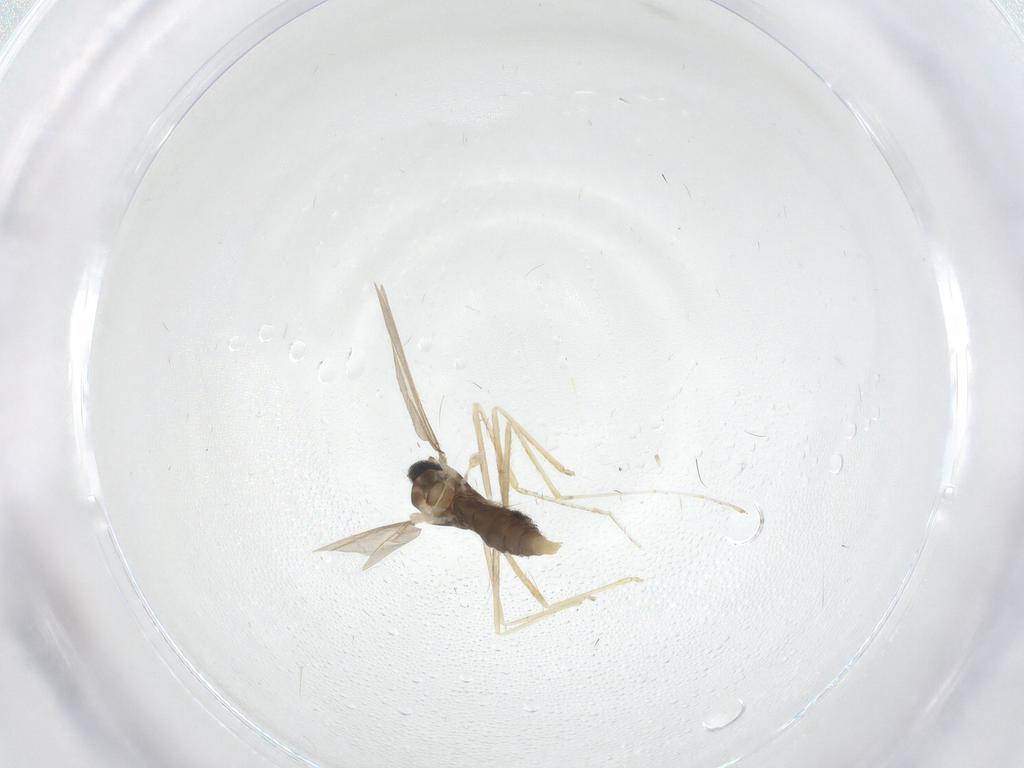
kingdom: Animalia
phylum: Arthropoda
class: Insecta
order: Diptera
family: Cecidomyiidae
